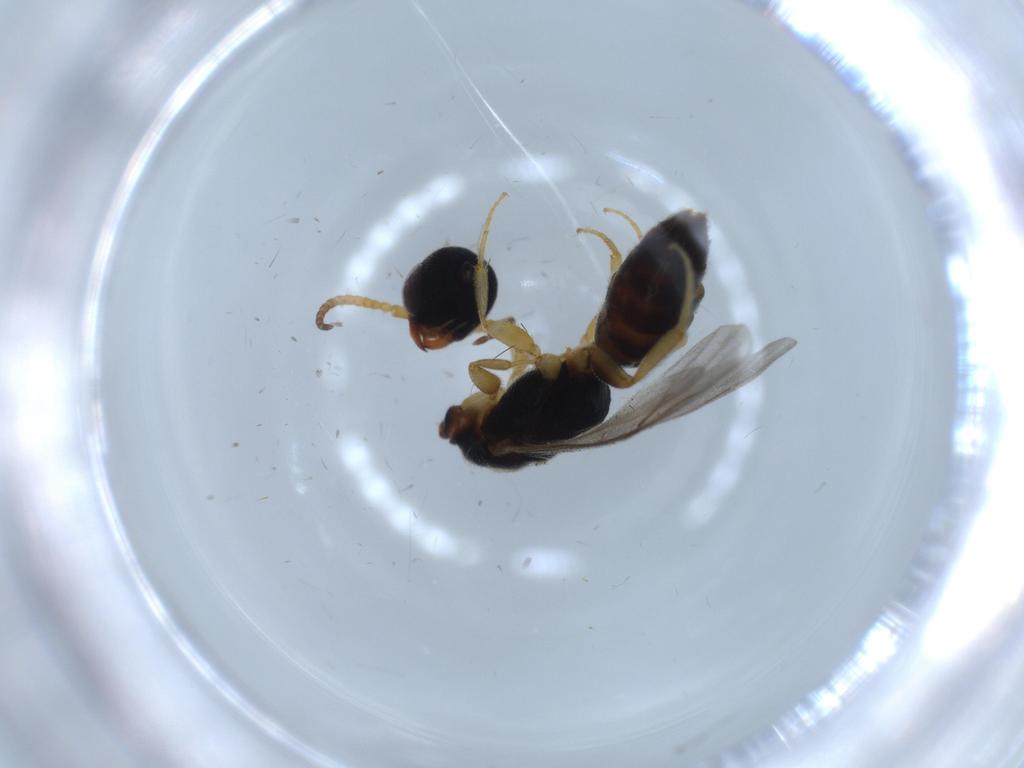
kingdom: Animalia
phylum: Arthropoda
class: Insecta
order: Hymenoptera
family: Bethylidae
